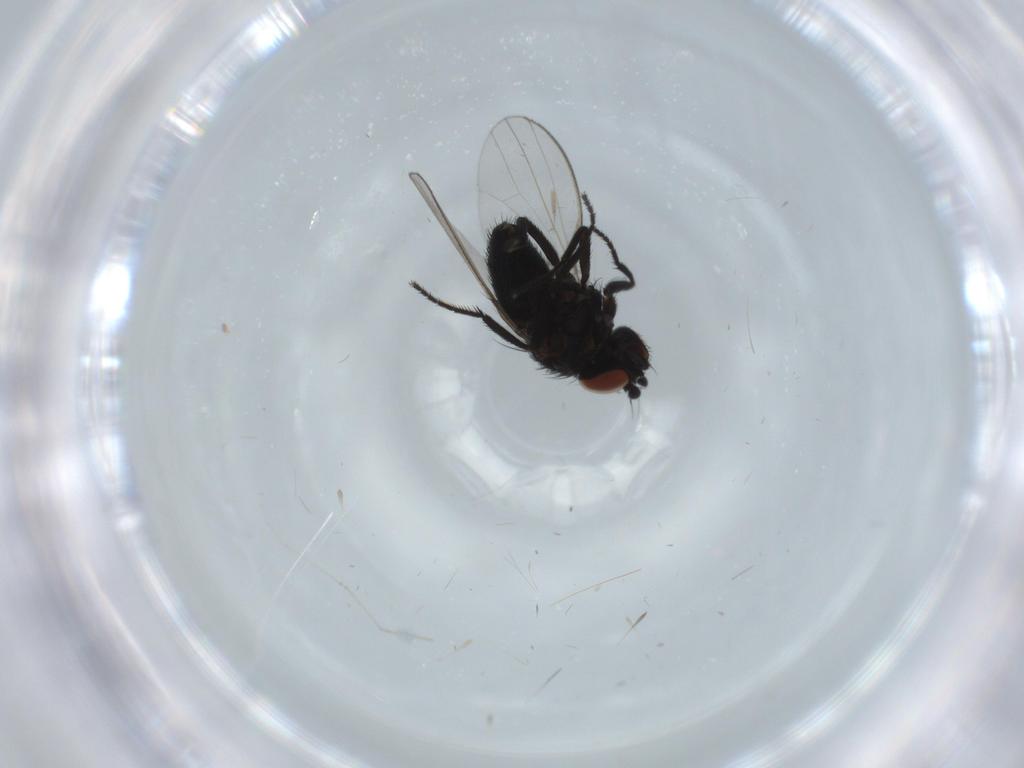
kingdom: Animalia
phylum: Arthropoda
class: Insecta
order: Diptera
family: Milichiidae
